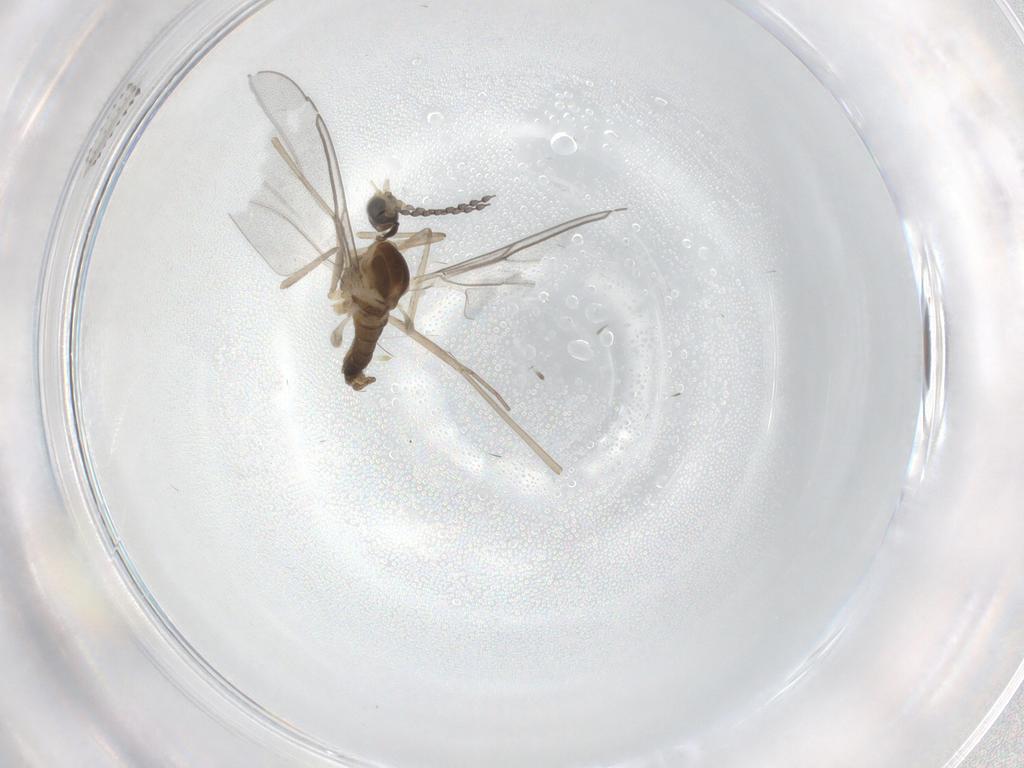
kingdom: Animalia
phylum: Arthropoda
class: Insecta
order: Diptera
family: Cecidomyiidae
